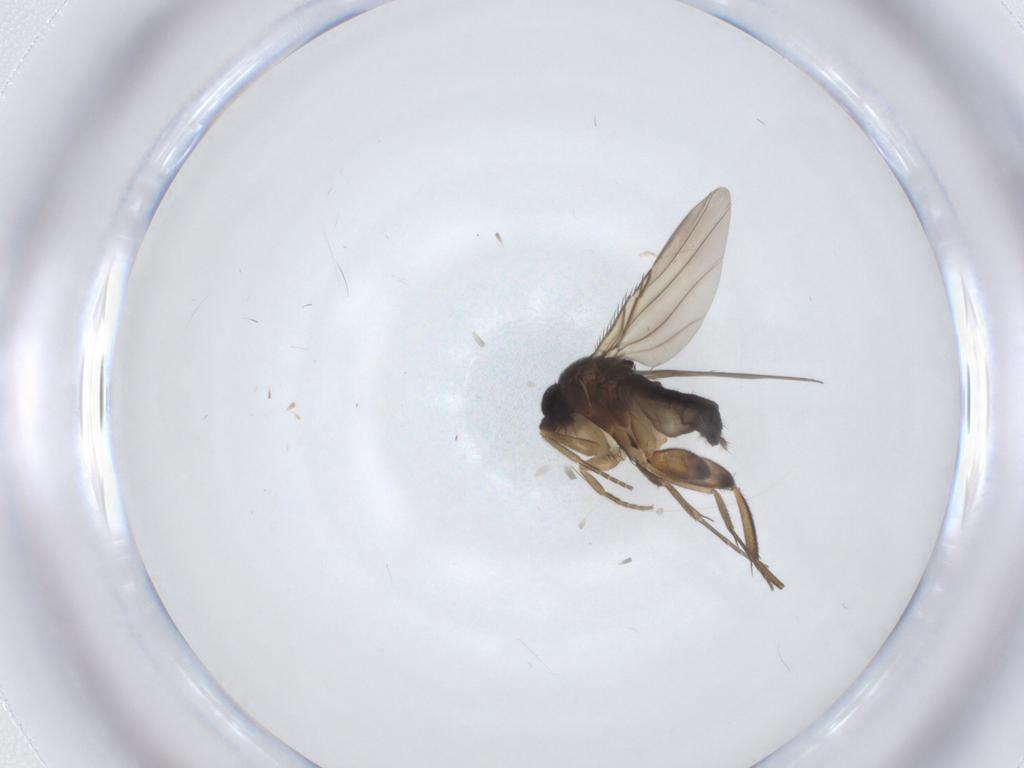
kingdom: Animalia
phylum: Arthropoda
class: Insecta
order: Diptera
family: Phoridae
